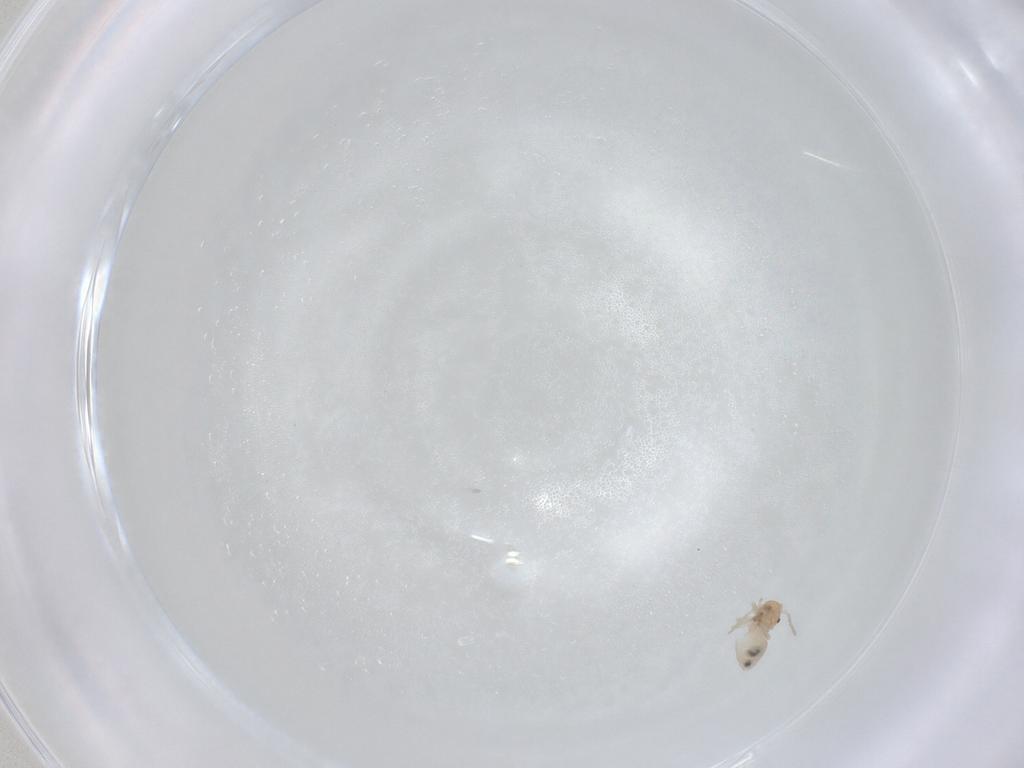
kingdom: Animalia
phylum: Arthropoda
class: Insecta
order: Psocodea
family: Caeciliusidae
